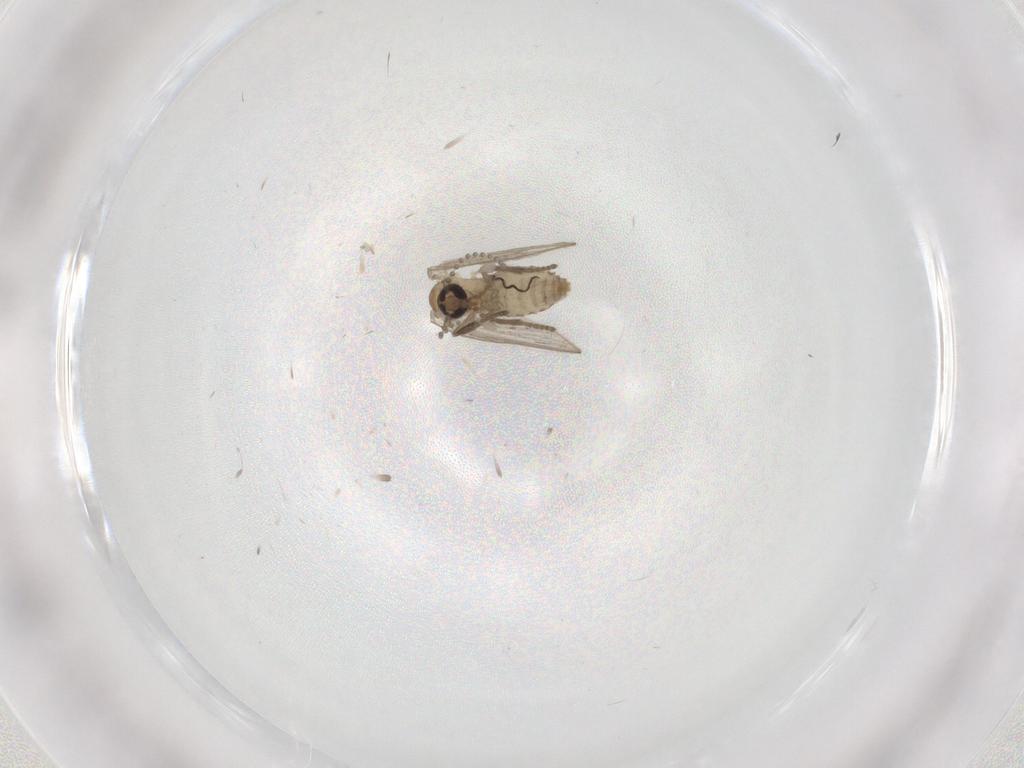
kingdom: Animalia
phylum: Arthropoda
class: Insecta
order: Diptera
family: Psychodidae
